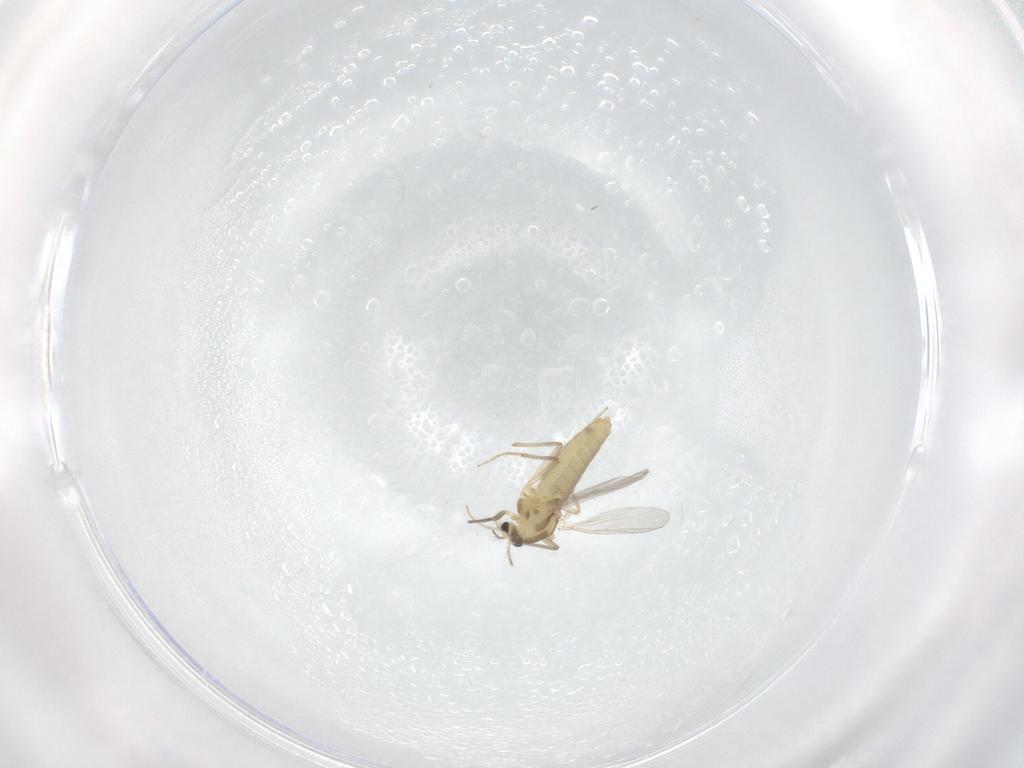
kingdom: Animalia
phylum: Arthropoda
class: Insecta
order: Diptera
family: Chironomidae
